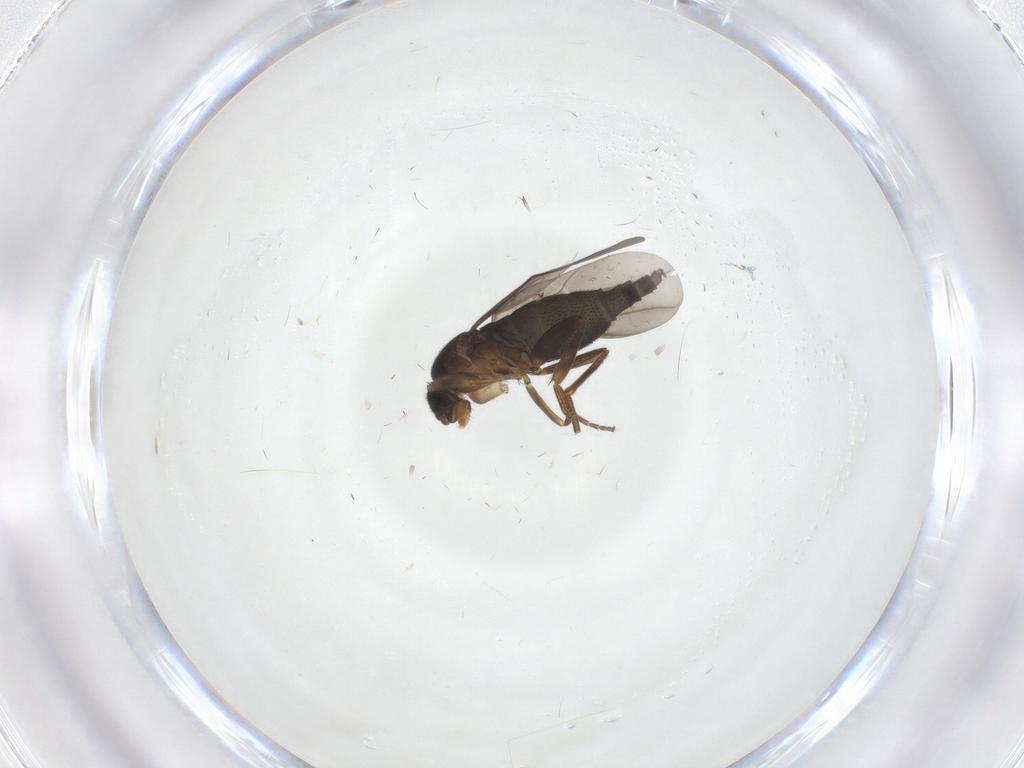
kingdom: Animalia
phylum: Arthropoda
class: Insecta
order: Diptera
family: Phoridae
